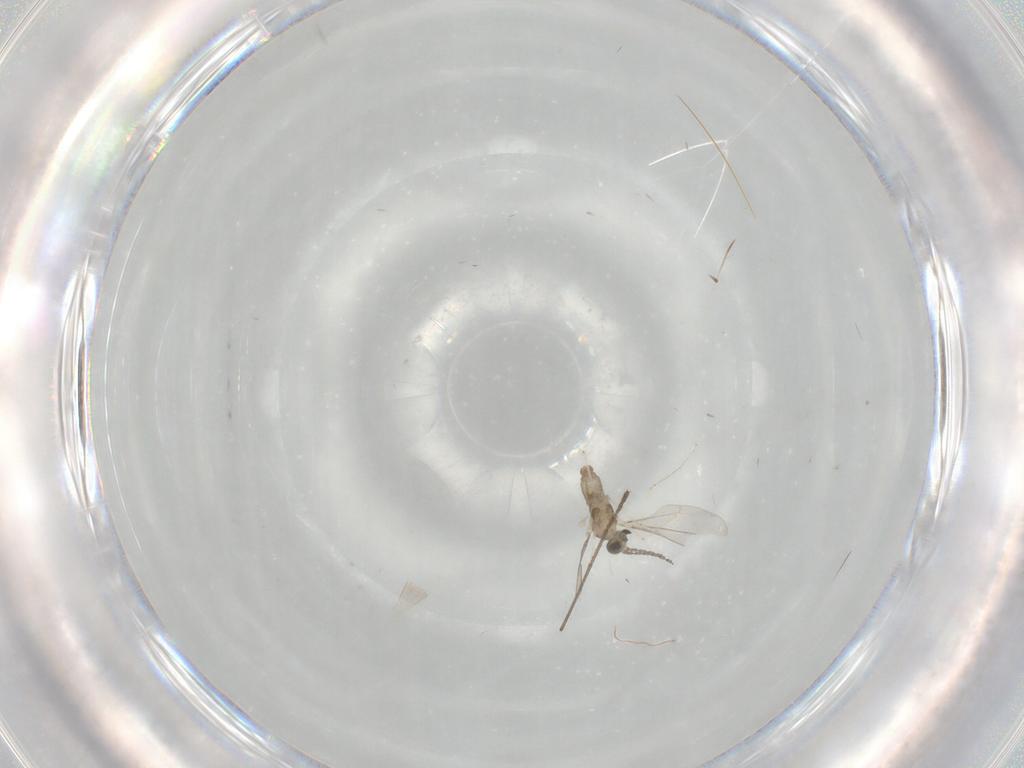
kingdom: Animalia
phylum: Arthropoda
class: Insecta
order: Diptera
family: Limoniidae
